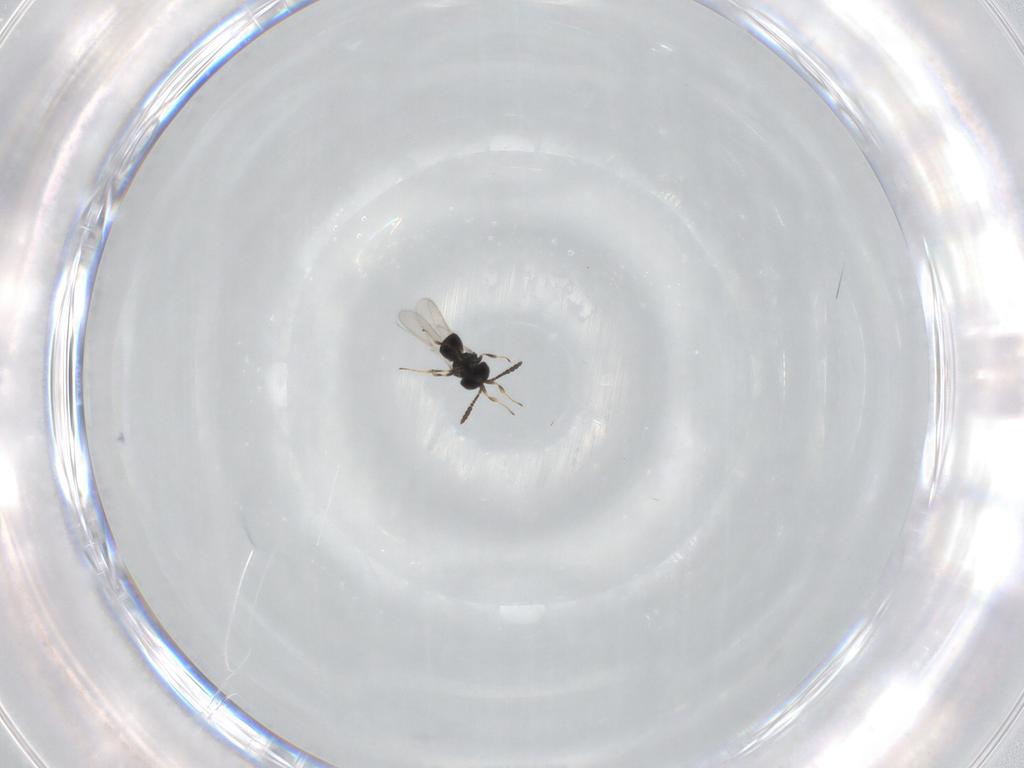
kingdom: Animalia
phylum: Arthropoda
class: Insecta
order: Hymenoptera
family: Scelionidae
